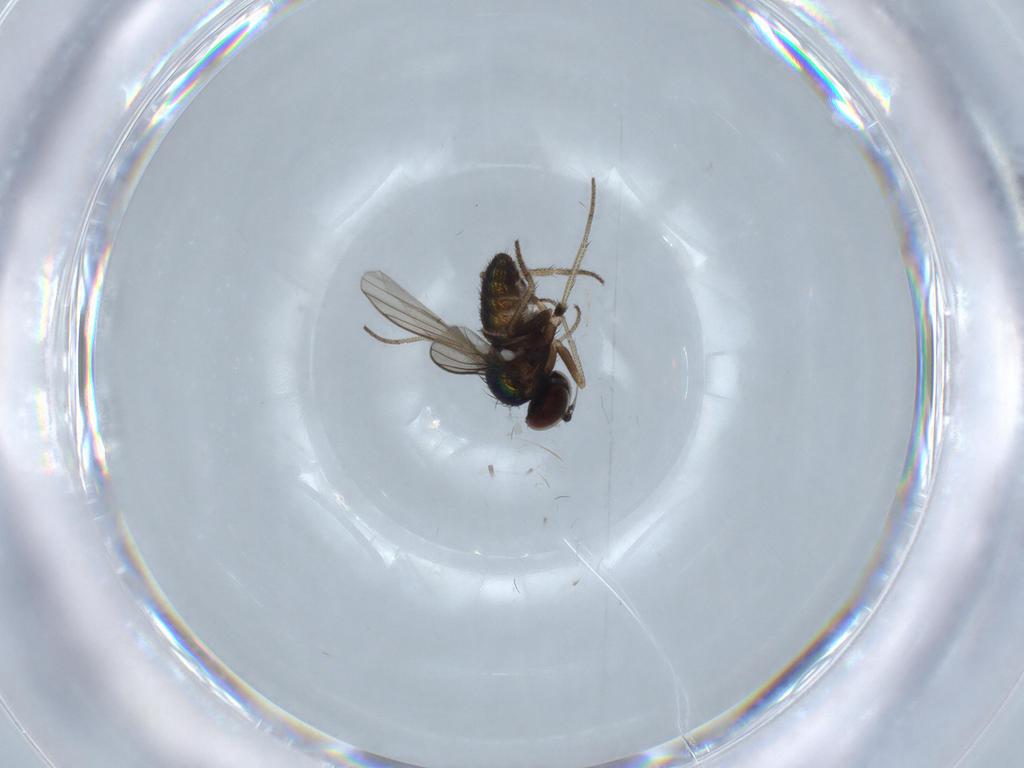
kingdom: Animalia
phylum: Arthropoda
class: Insecta
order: Diptera
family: Dolichopodidae
